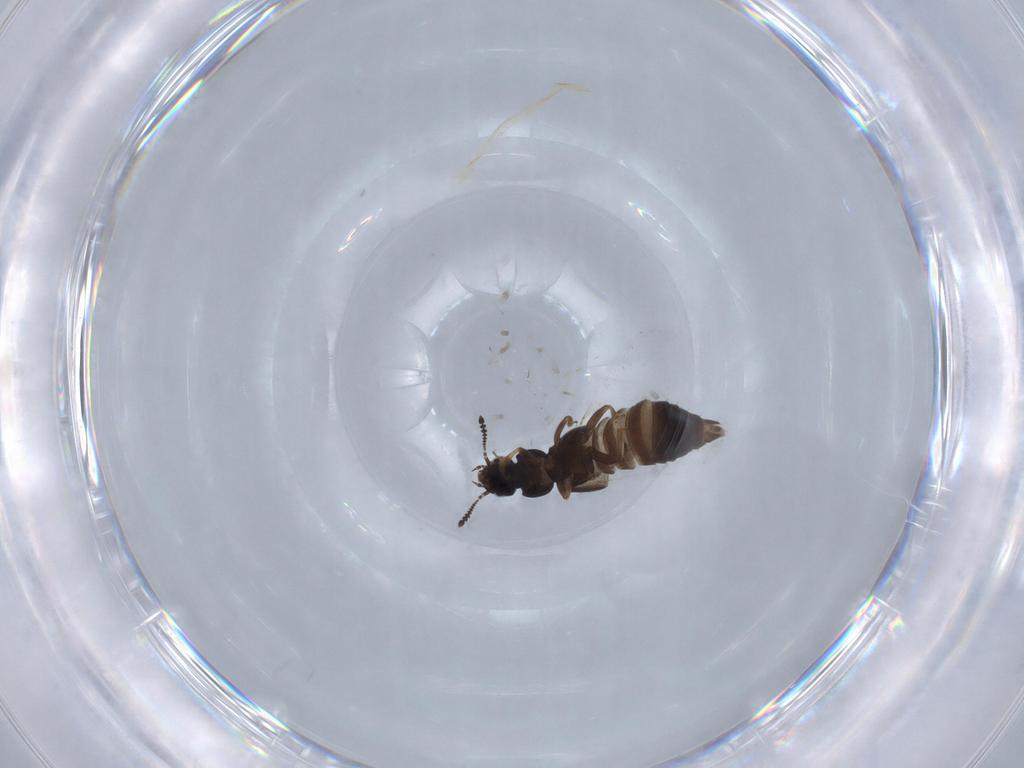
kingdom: Animalia
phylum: Arthropoda
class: Insecta
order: Coleoptera
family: Staphylinidae
